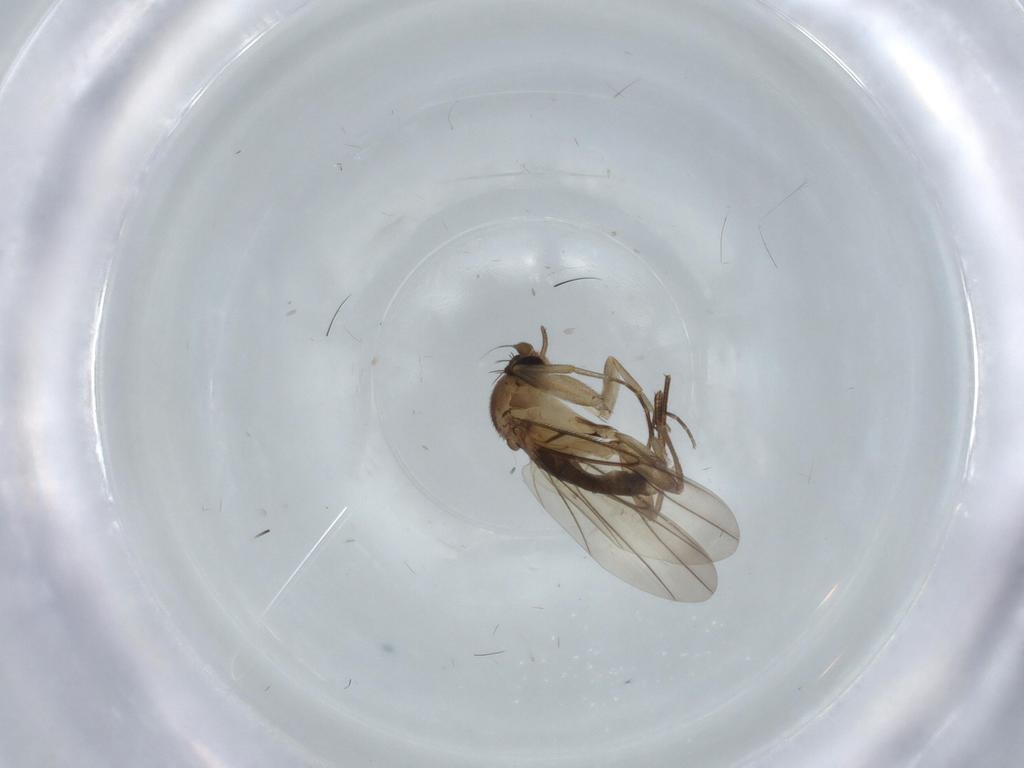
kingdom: Animalia
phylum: Arthropoda
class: Insecta
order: Diptera
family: Phoridae
